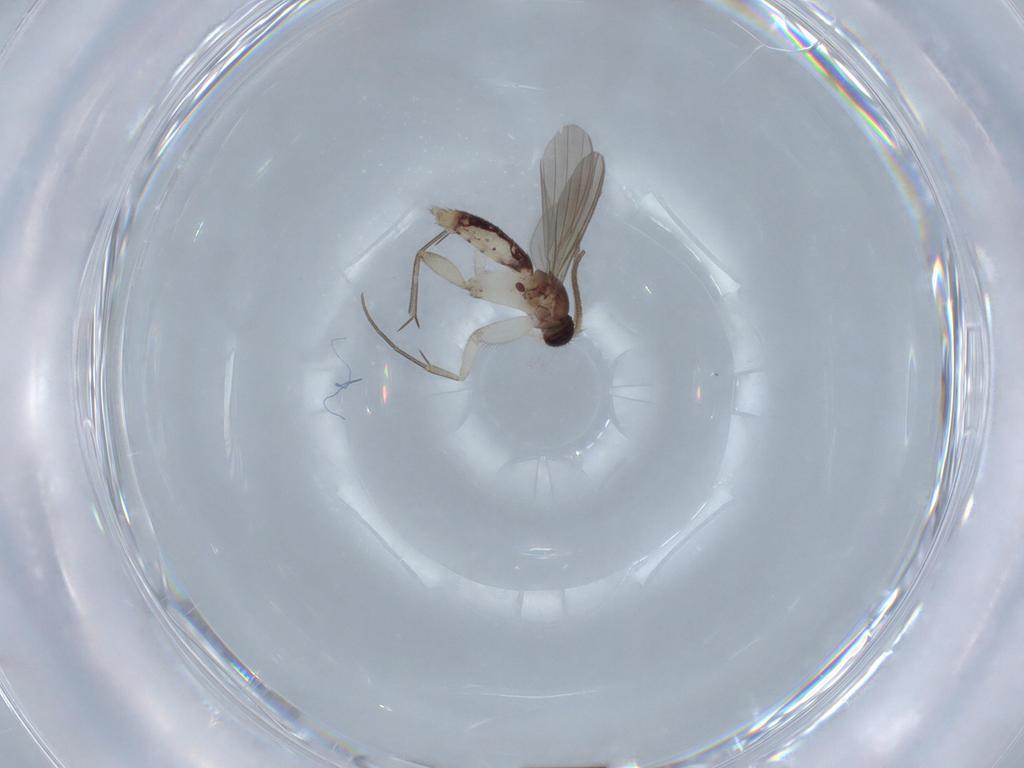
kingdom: Animalia
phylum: Arthropoda
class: Insecta
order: Diptera
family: Mycetophilidae
